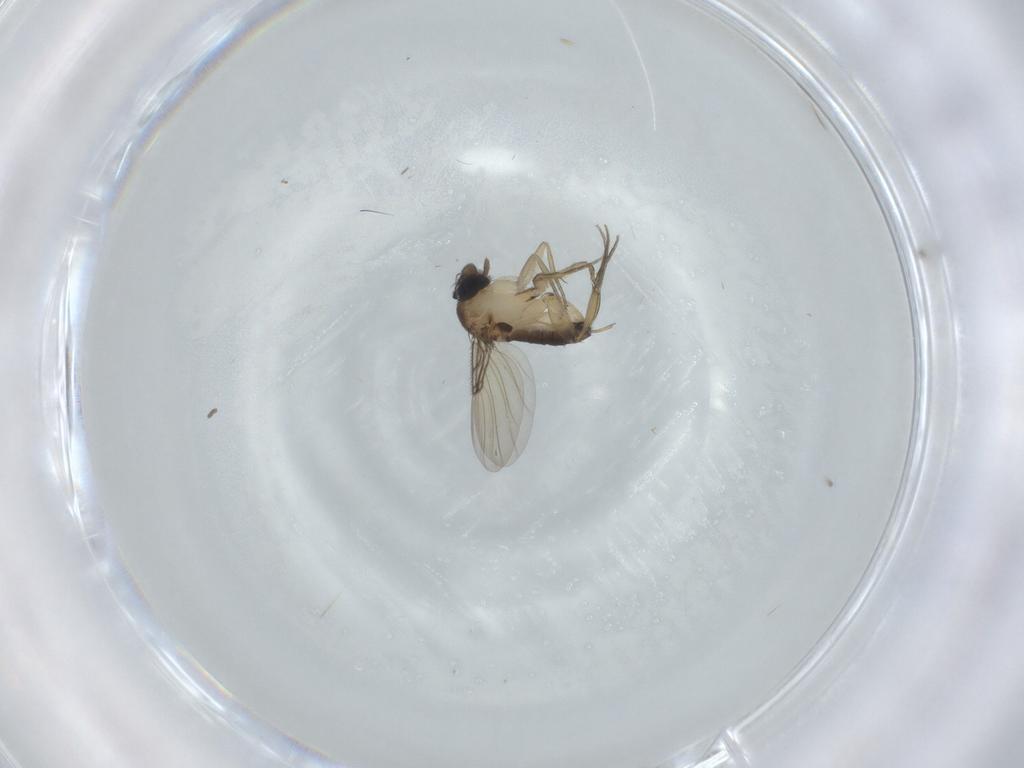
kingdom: Animalia
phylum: Arthropoda
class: Insecta
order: Diptera
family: Phoridae
